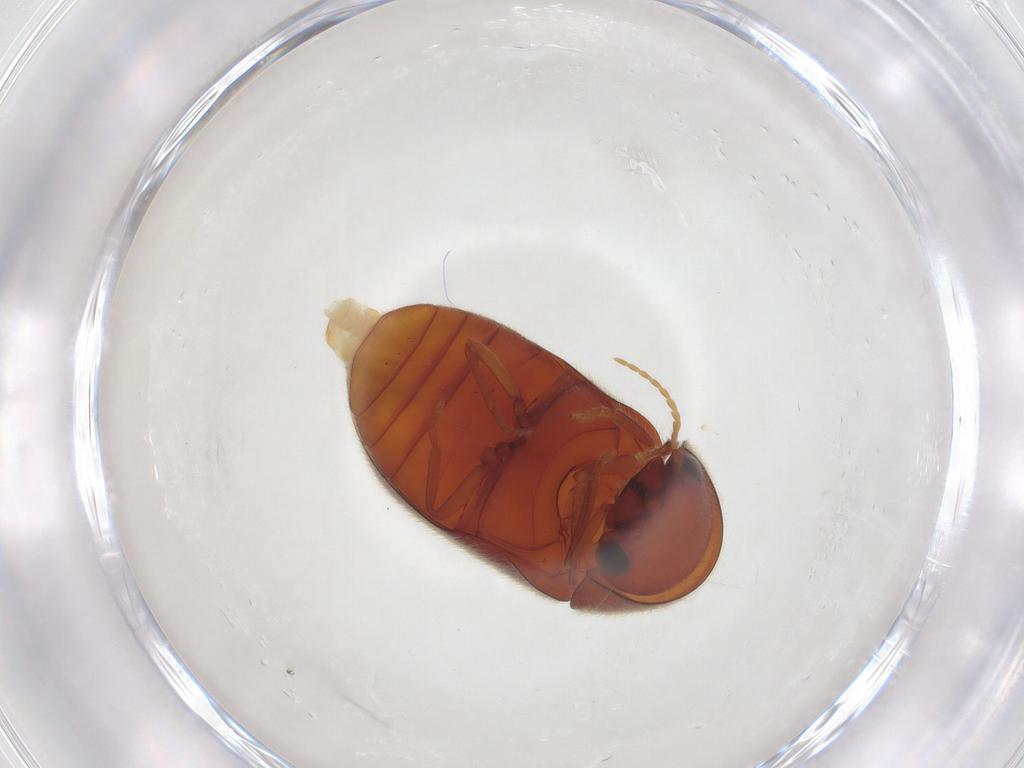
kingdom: Animalia
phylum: Arthropoda
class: Insecta
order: Coleoptera
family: Ptinidae
